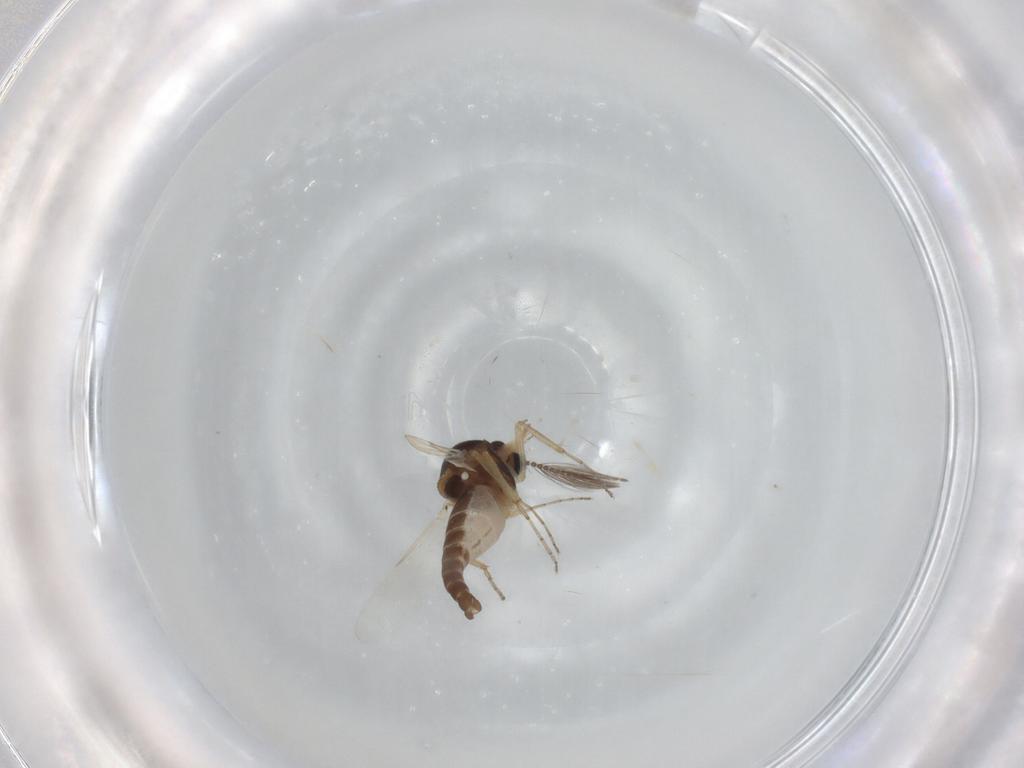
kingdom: Animalia
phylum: Arthropoda
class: Insecta
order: Diptera
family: Ceratopogonidae
